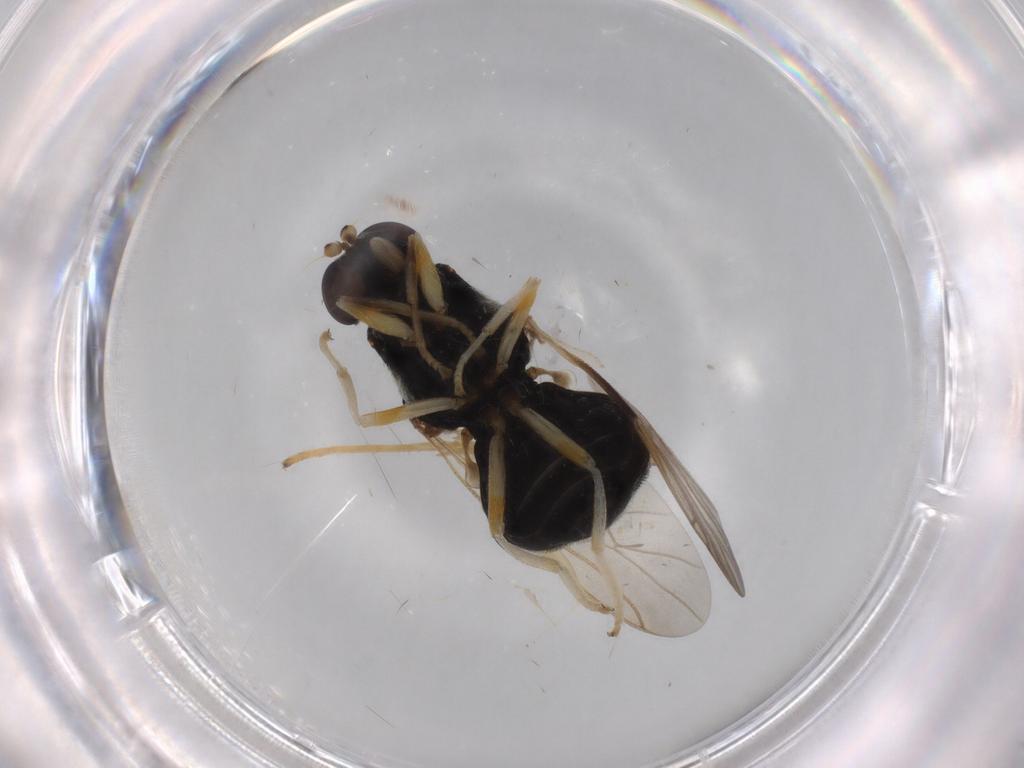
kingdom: Animalia
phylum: Arthropoda
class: Insecta
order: Diptera
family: Stratiomyidae
